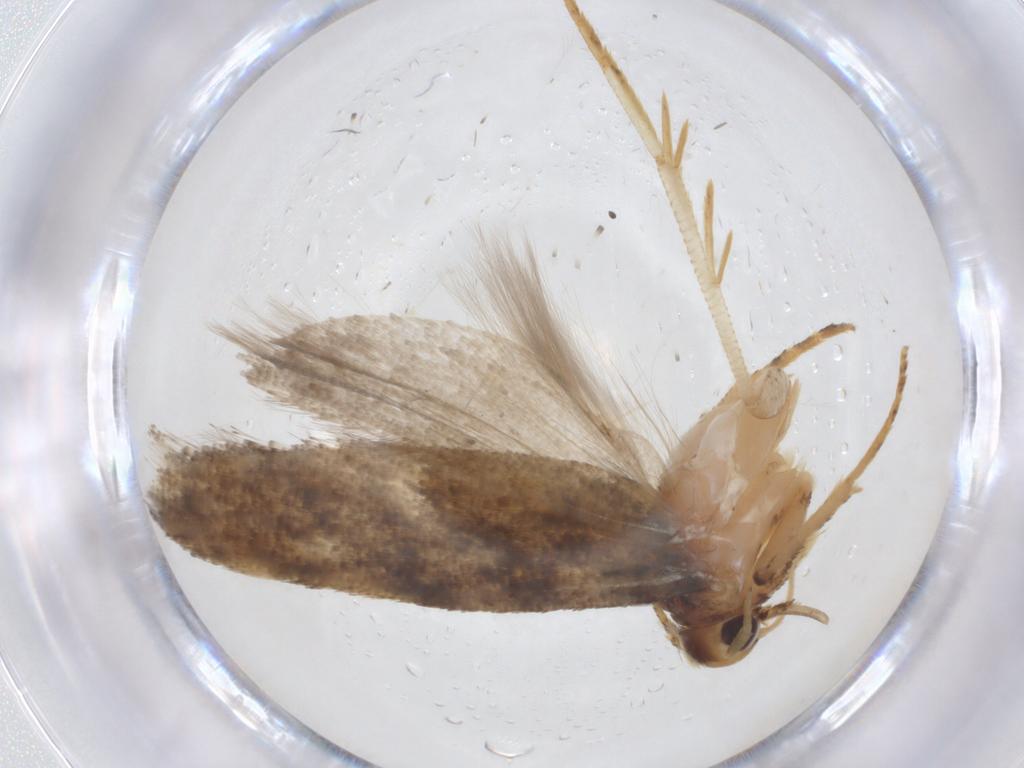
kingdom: Animalia
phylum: Arthropoda
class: Insecta
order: Lepidoptera
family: Gelechiidae
